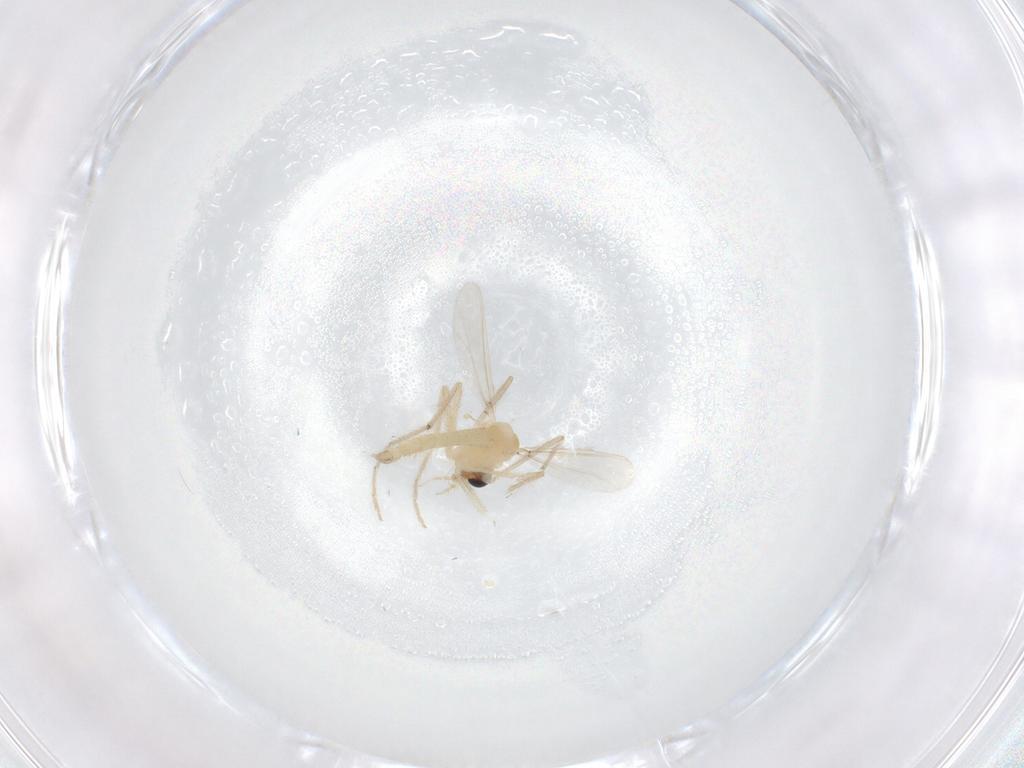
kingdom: Animalia
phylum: Arthropoda
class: Insecta
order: Diptera
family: Chironomidae
